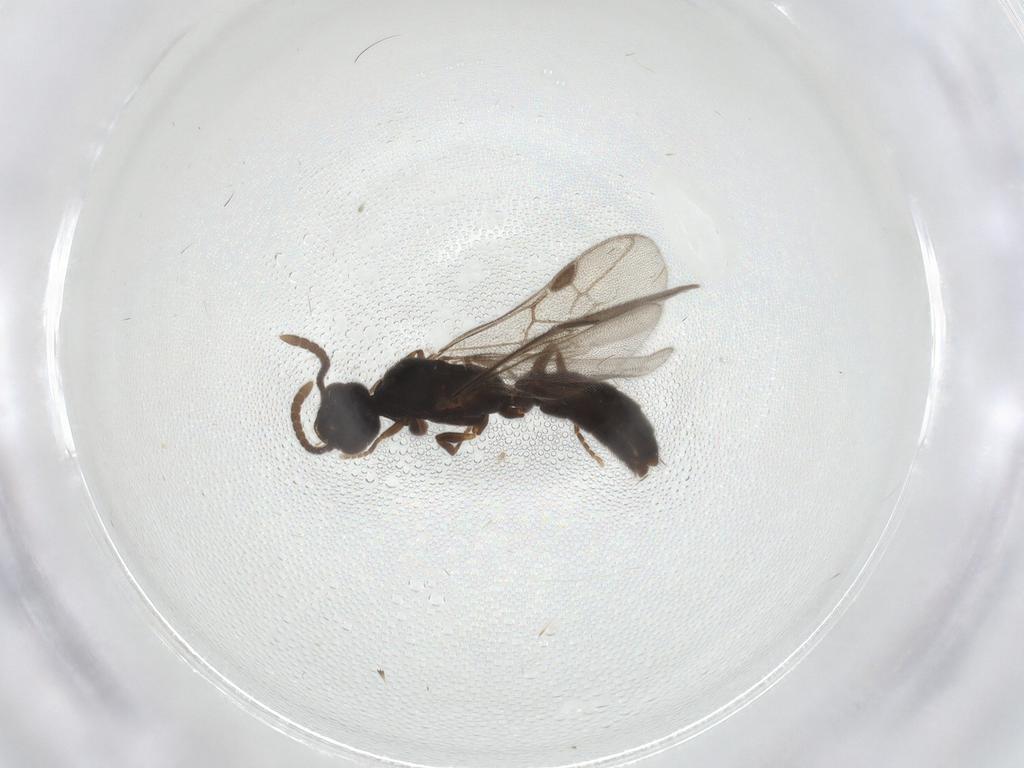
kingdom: Animalia
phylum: Arthropoda
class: Insecta
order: Hymenoptera
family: Formicidae
